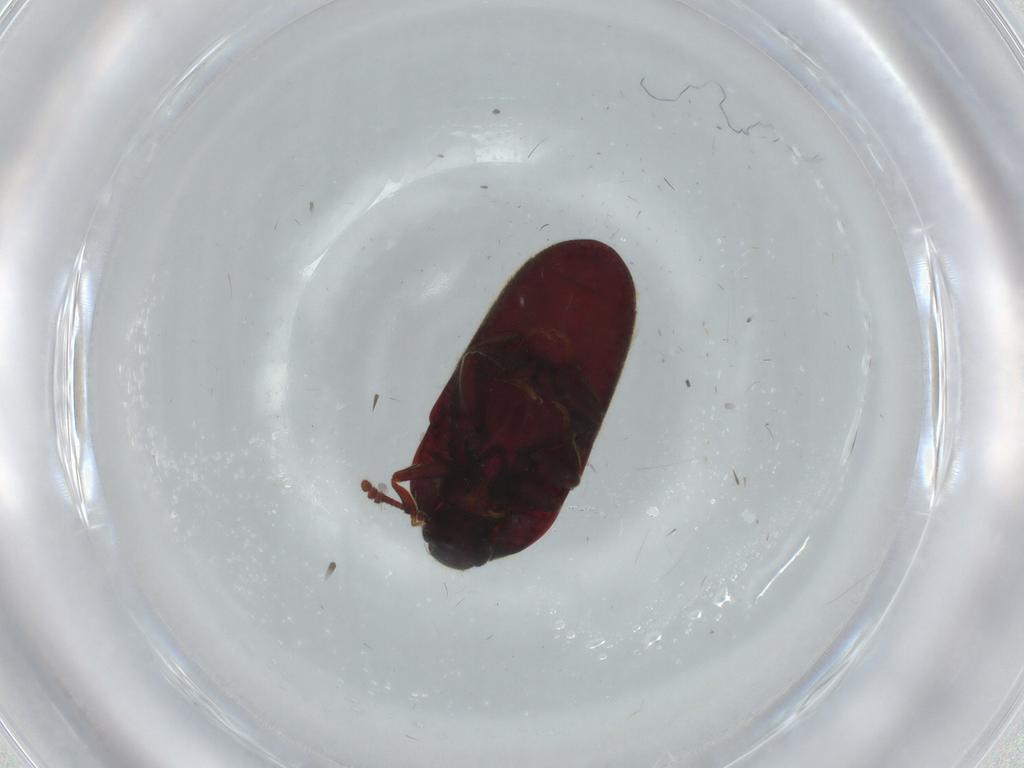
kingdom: Animalia
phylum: Arthropoda
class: Insecta
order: Coleoptera
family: Throscidae
